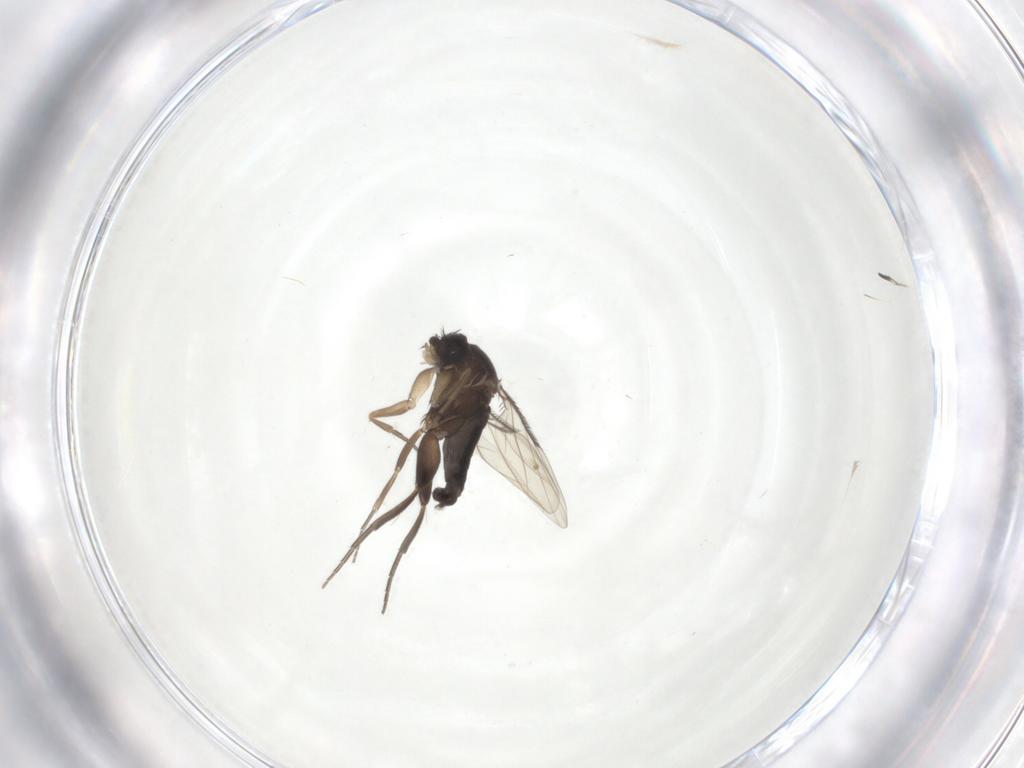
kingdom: Animalia
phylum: Arthropoda
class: Insecta
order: Diptera
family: Phoridae
